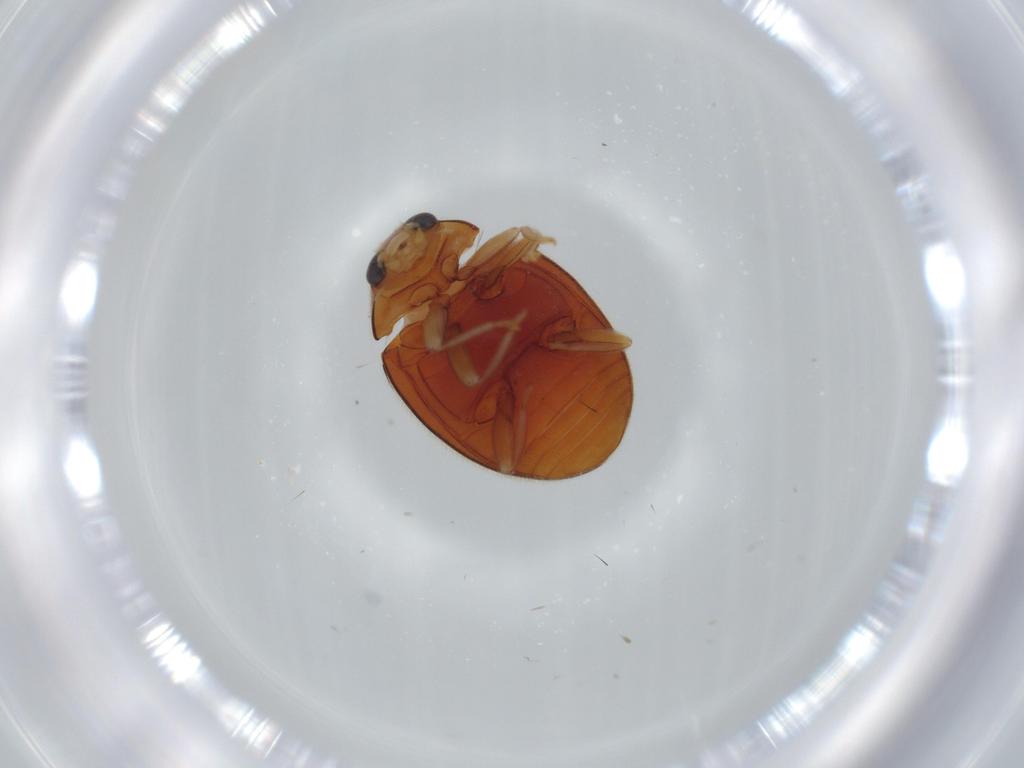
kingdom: Animalia
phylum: Arthropoda
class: Insecta
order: Coleoptera
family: Coccinellidae
